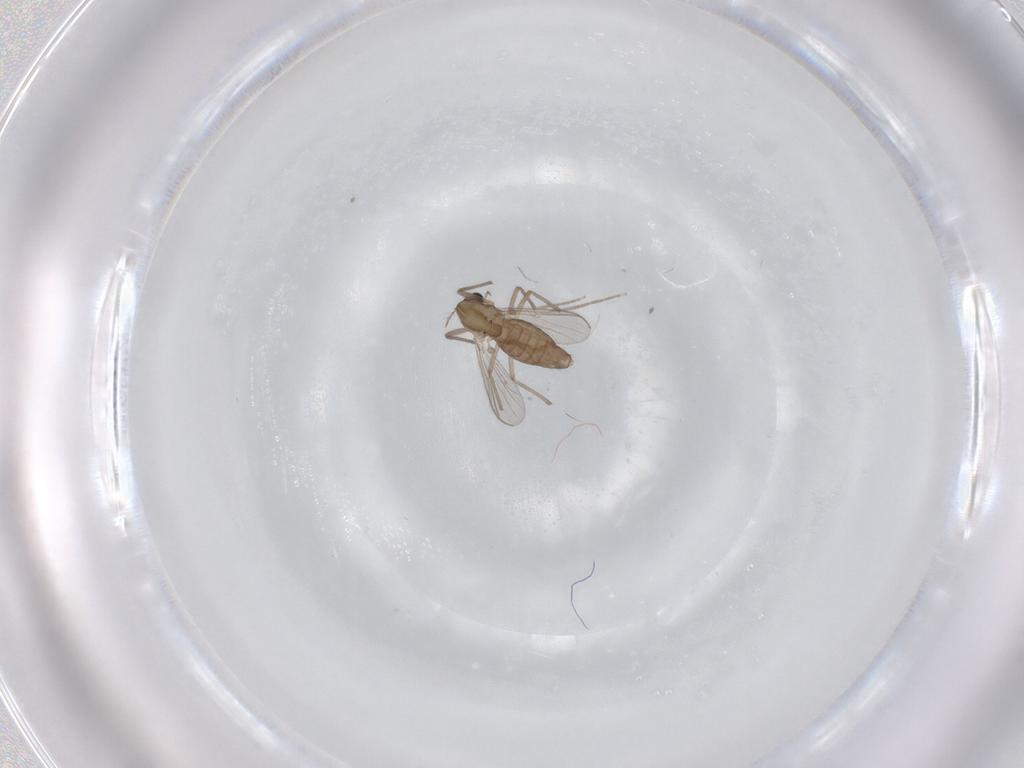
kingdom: Animalia
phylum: Arthropoda
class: Insecta
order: Diptera
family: Chironomidae
